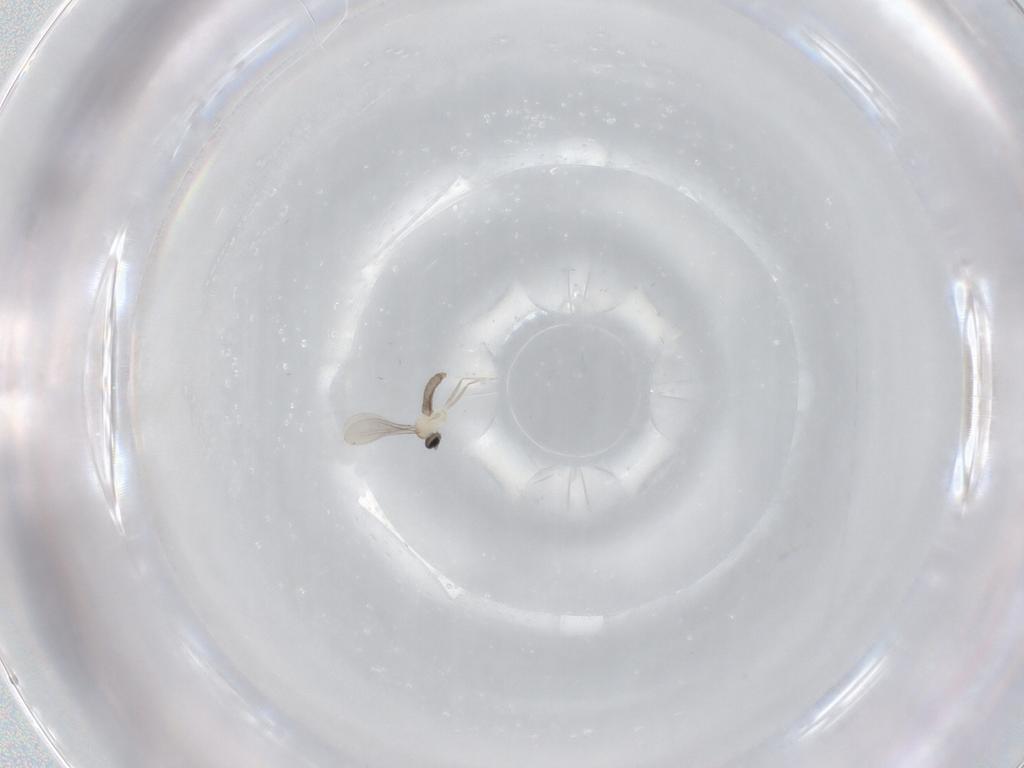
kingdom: Animalia
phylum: Arthropoda
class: Insecta
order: Diptera
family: Cecidomyiidae
